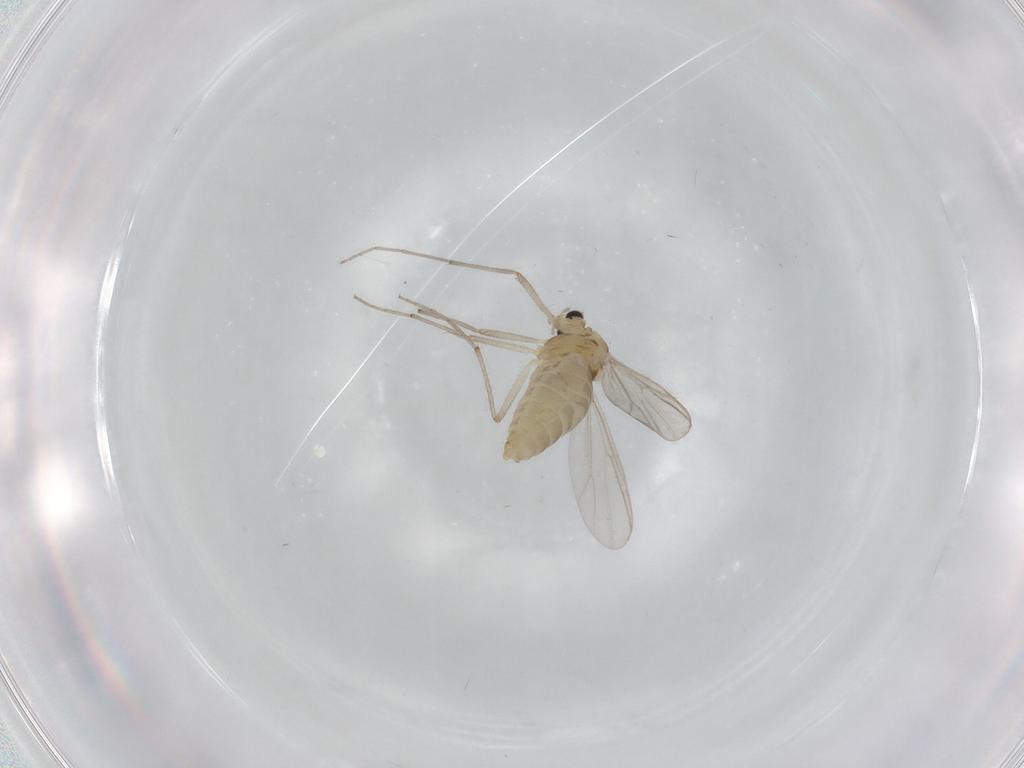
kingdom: Animalia
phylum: Arthropoda
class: Insecta
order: Diptera
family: Chironomidae
